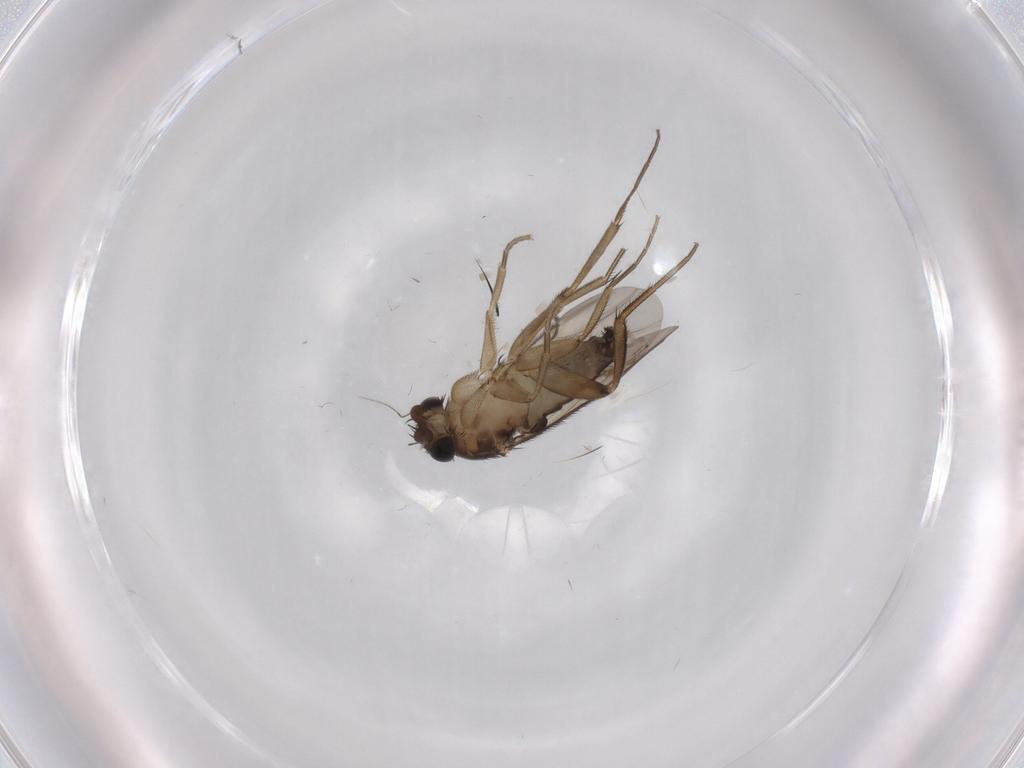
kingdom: Animalia
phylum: Arthropoda
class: Insecta
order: Diptera
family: Phoridae
